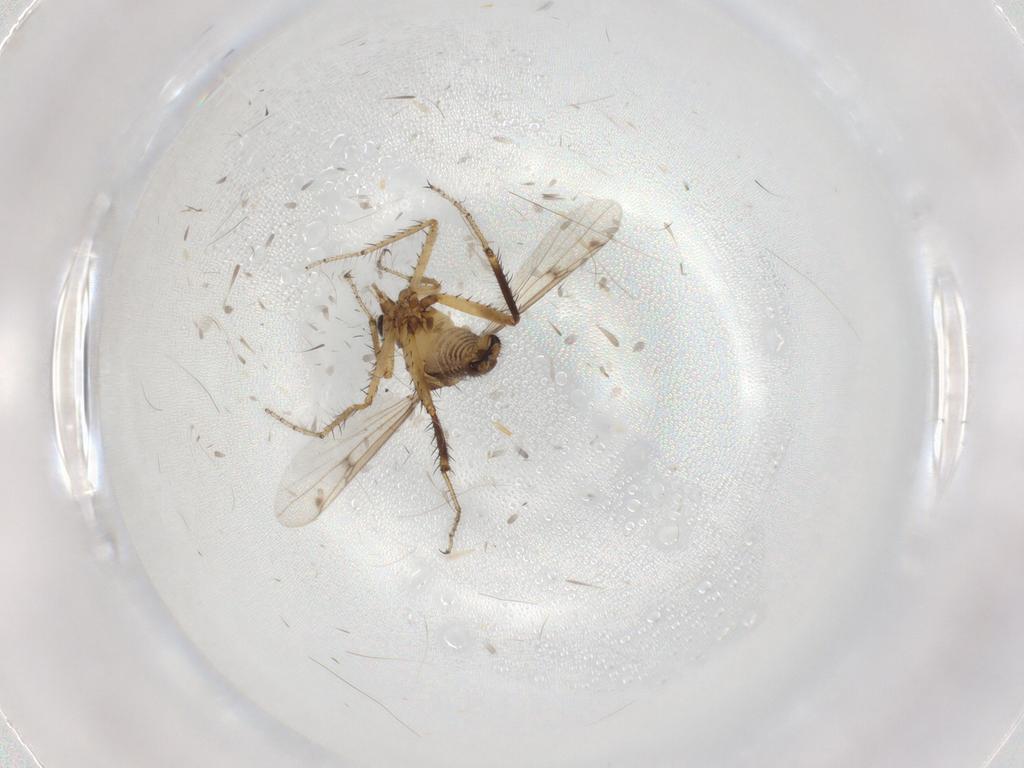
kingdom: Animalia
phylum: Arthropoda
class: Insecta
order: Diptera
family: Ceratopogonidae
